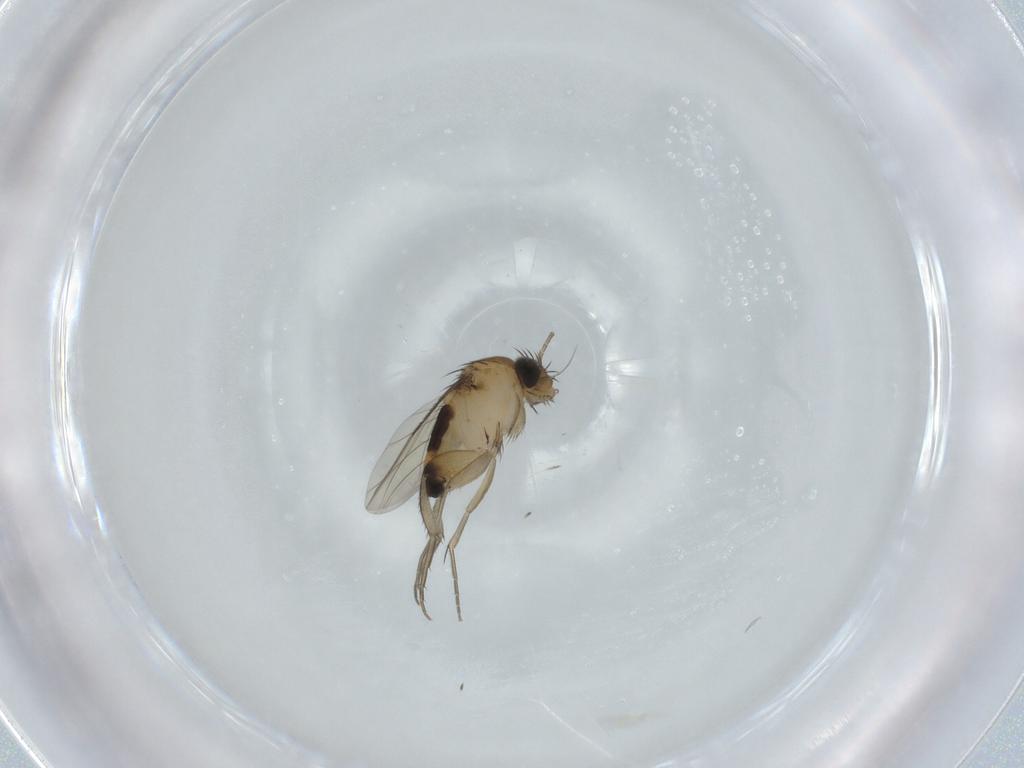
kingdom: Animalia
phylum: Arthropoda
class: Insecta
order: Diptera
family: Phoridae
